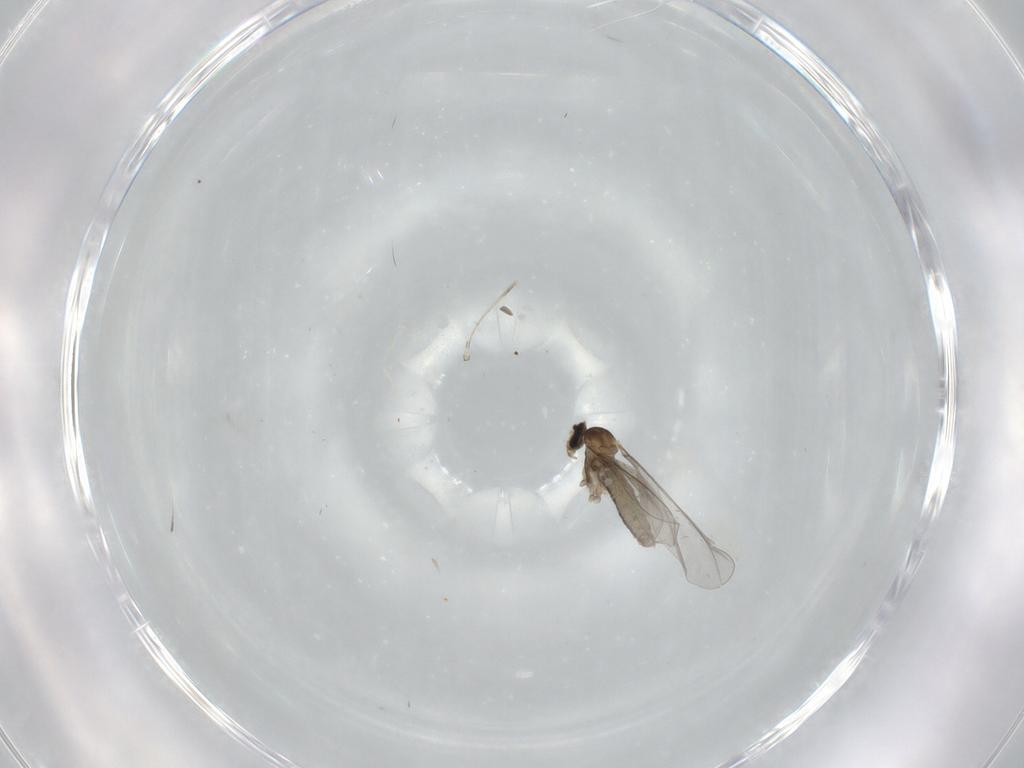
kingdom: Animalia
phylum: Arthropoda
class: Insecta
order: Diptera
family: Cecidomyiidae
